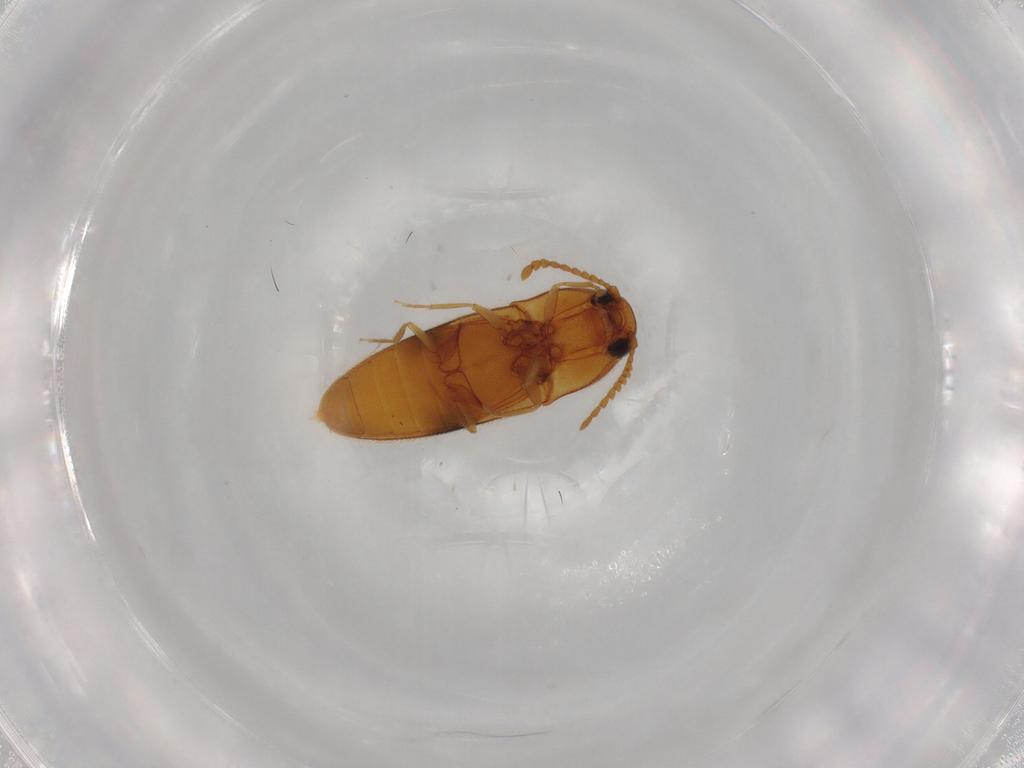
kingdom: Animalia
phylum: Arthropoda
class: Insecta
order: Coleoptera
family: Elateridae
